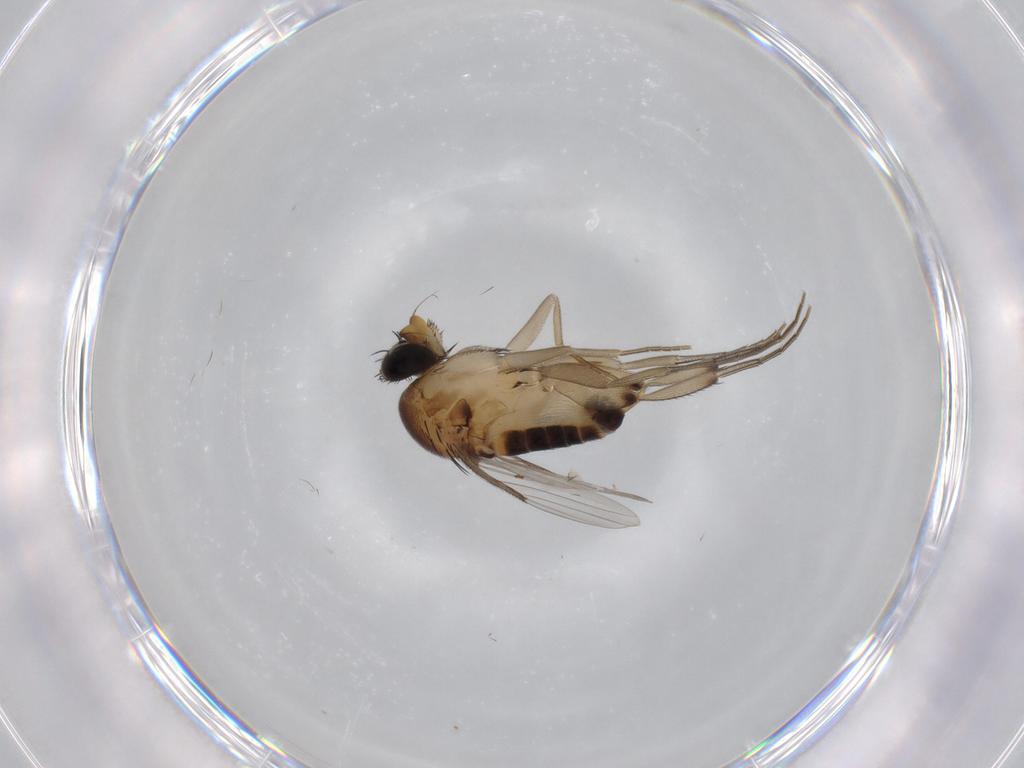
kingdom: Animalia
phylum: Arthropoda
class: Insecta
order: Diptera
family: Phoridae
